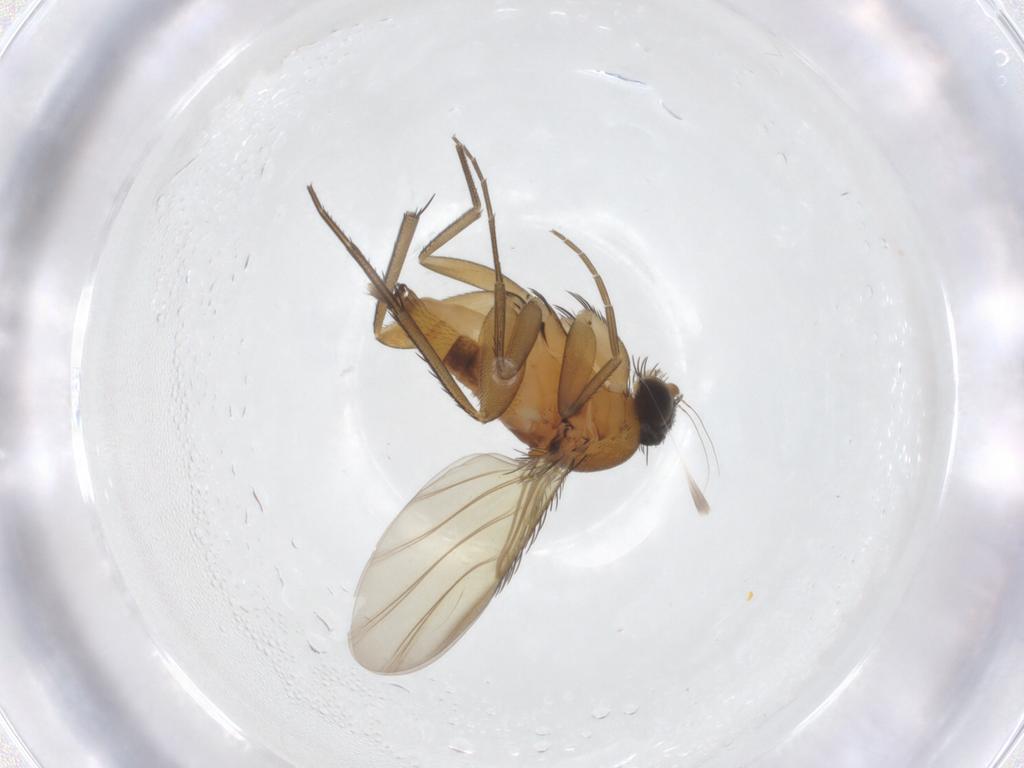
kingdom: Animalia
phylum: Arthropoda
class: Insecta
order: Diptera
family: Phoridae
